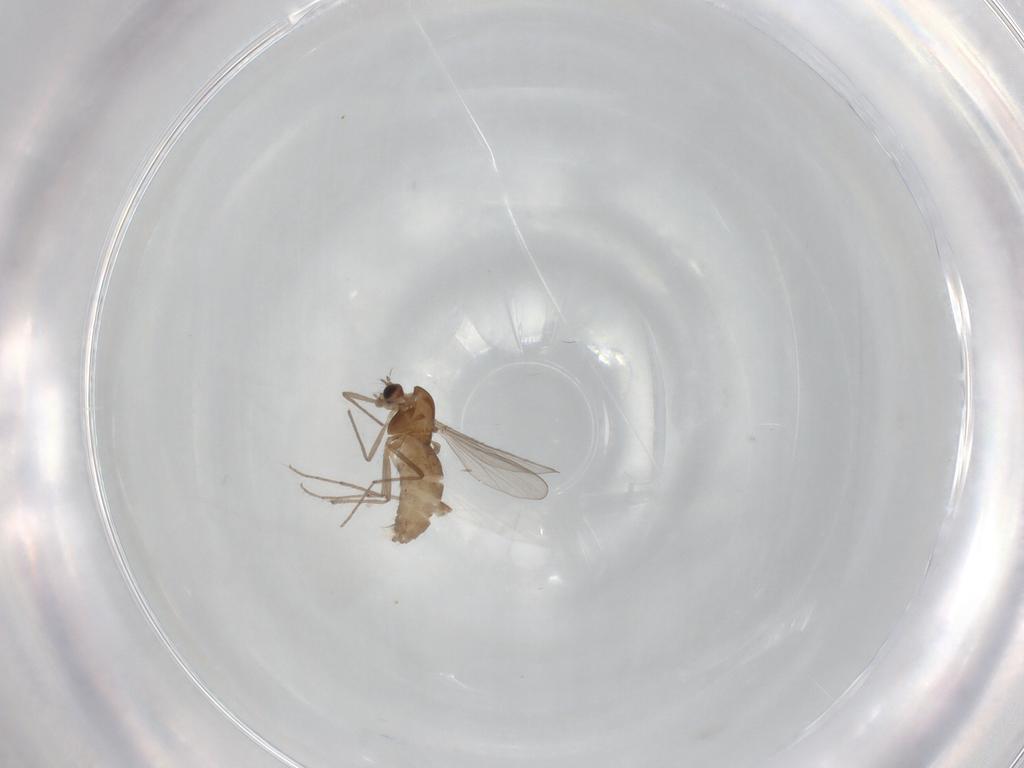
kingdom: Animalia
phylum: Arthropoda
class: Insecta
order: Diptera
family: Chironomidae
